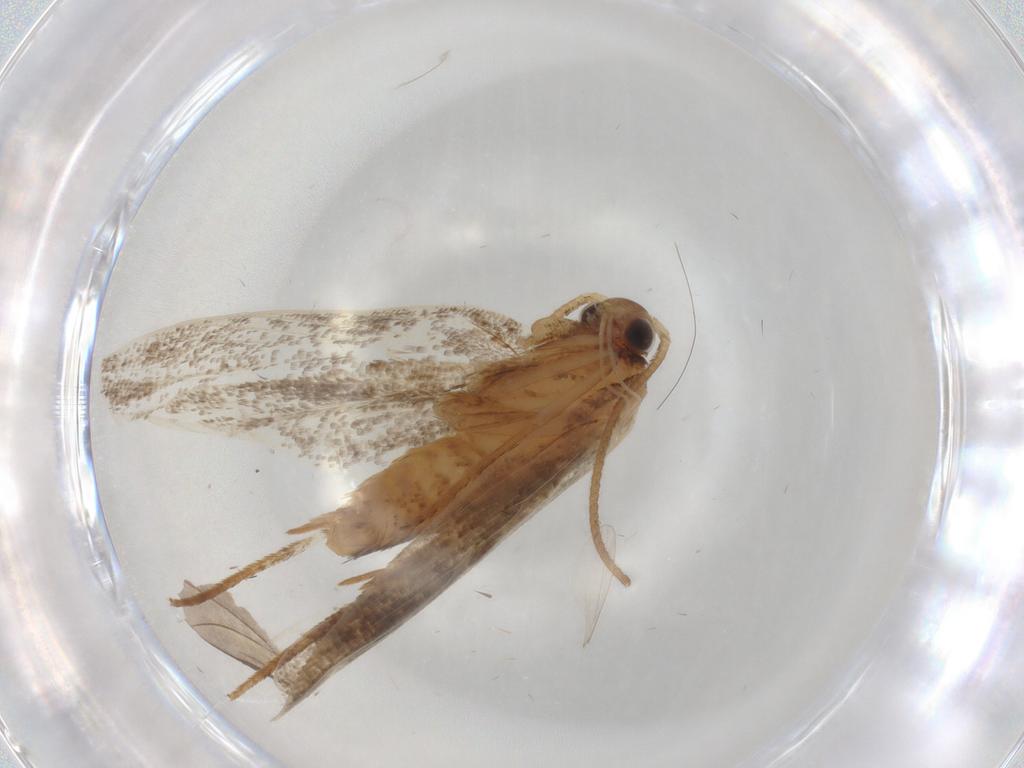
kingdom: Animalia
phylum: Arthropoda
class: Insecta
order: Lepidoptera
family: Oecophoridae
